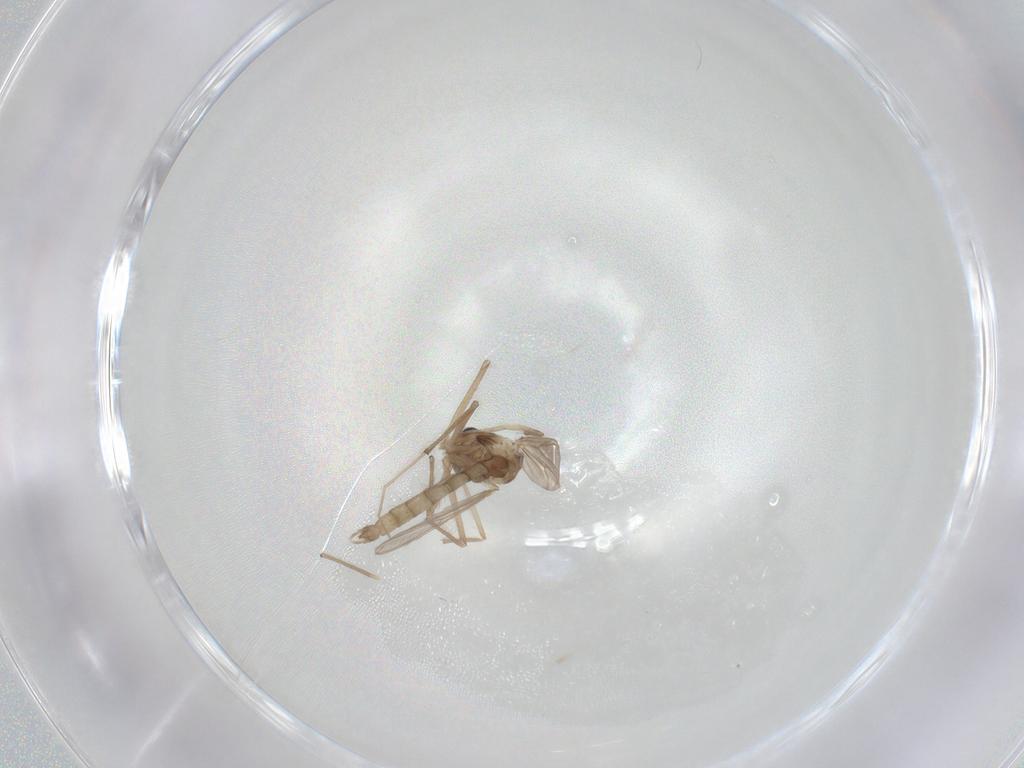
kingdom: Animalia
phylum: Arthropoda
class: Insecta
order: Diptera
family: Chironomidae
